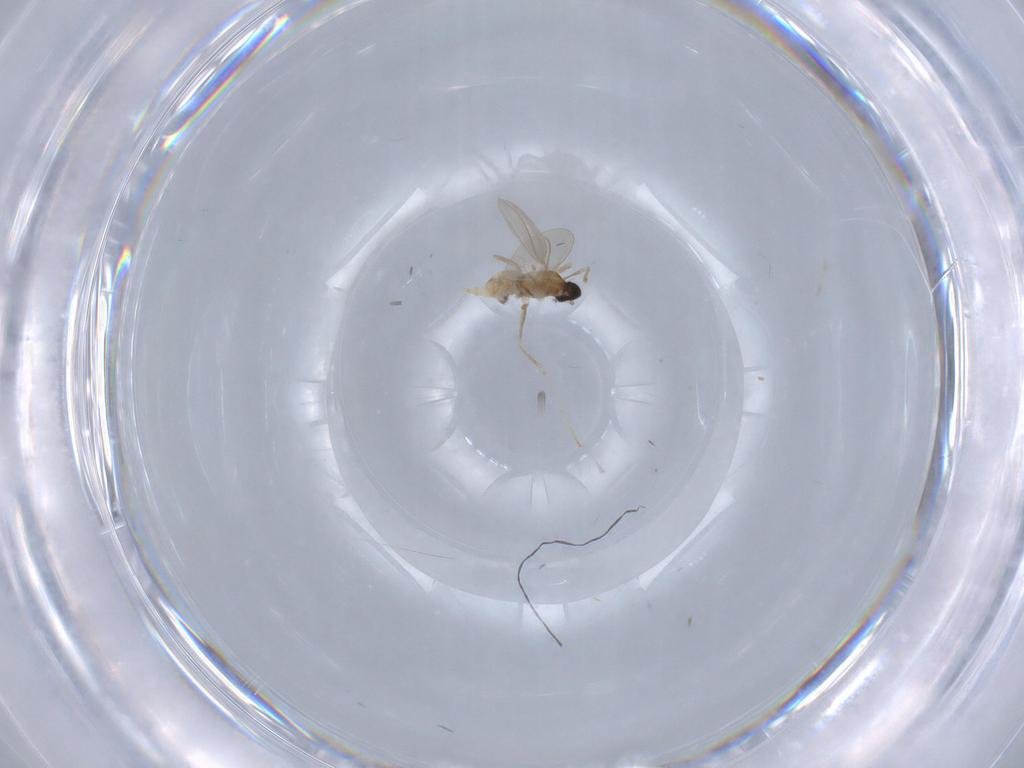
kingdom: Animalia
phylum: Arthropoda
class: Insecta
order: Diptera
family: Cecidomyiidae
